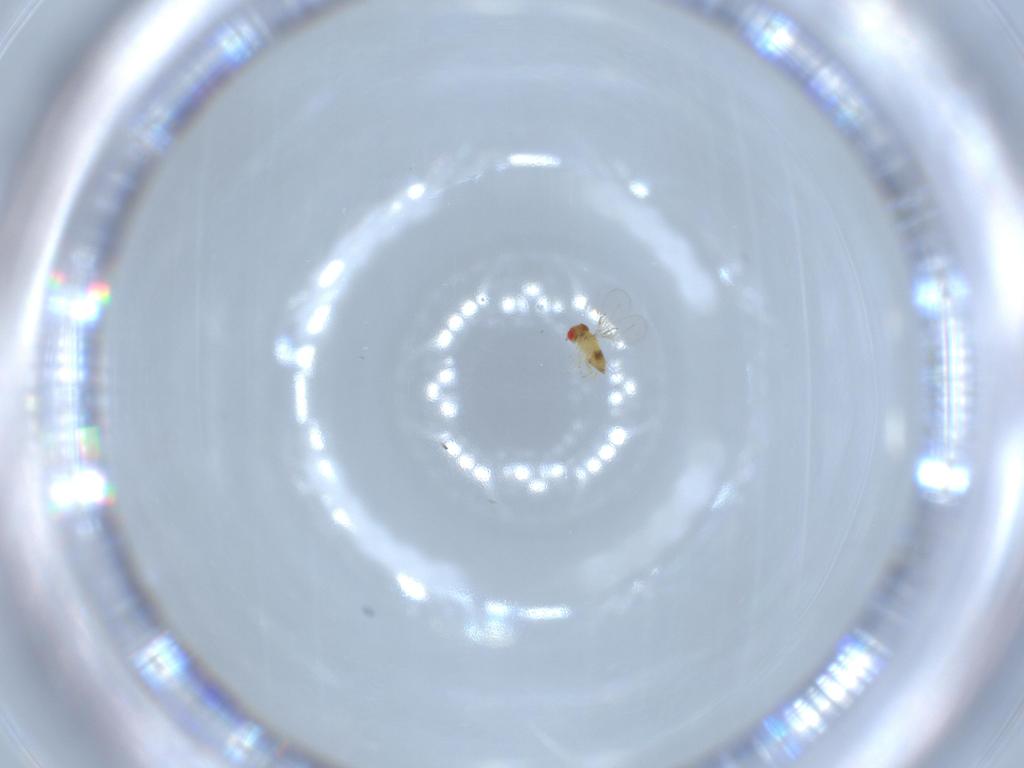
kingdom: Animalia
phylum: Arthropoda
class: Insecta
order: Hymenoptera
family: Trichogrammatidae
